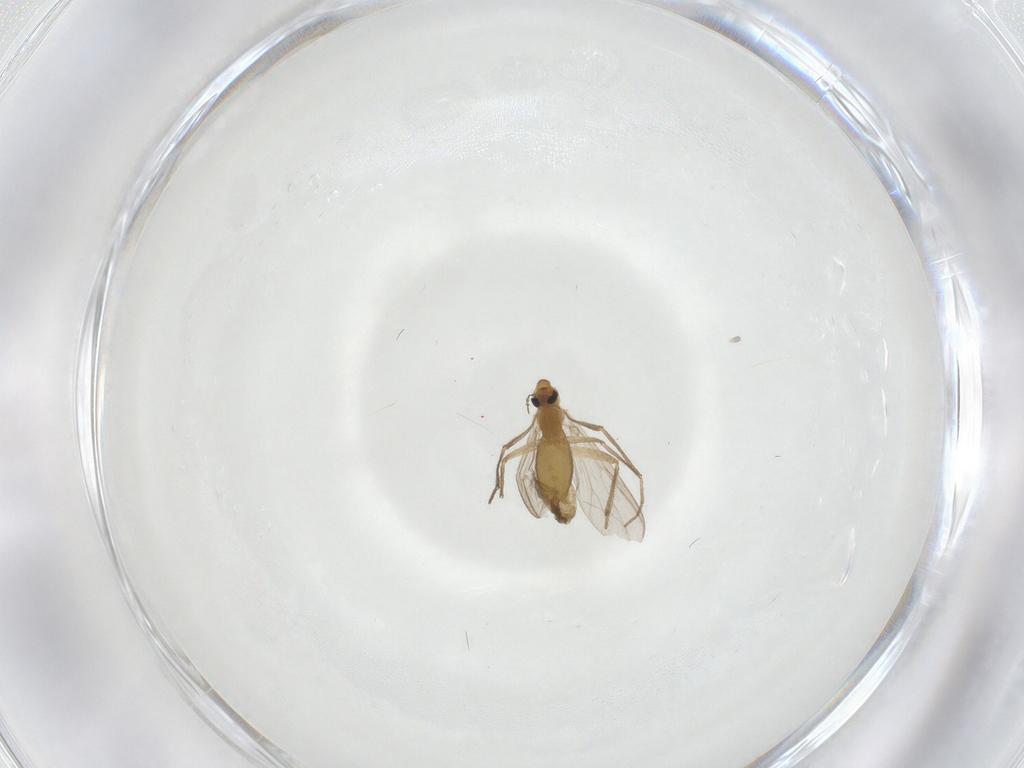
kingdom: Animalia
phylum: Arthropoda
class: Insecta
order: Diptera
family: Chironomidae
